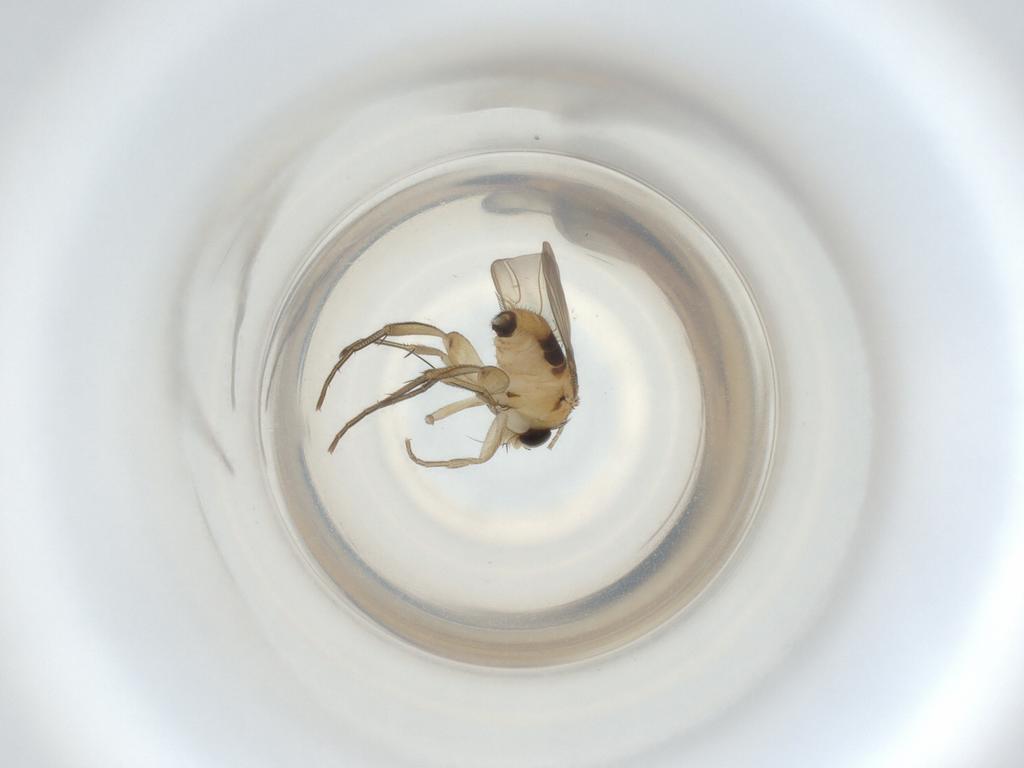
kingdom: Animalia
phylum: Arthropoda
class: Insecta
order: Diptera
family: Phoridae
